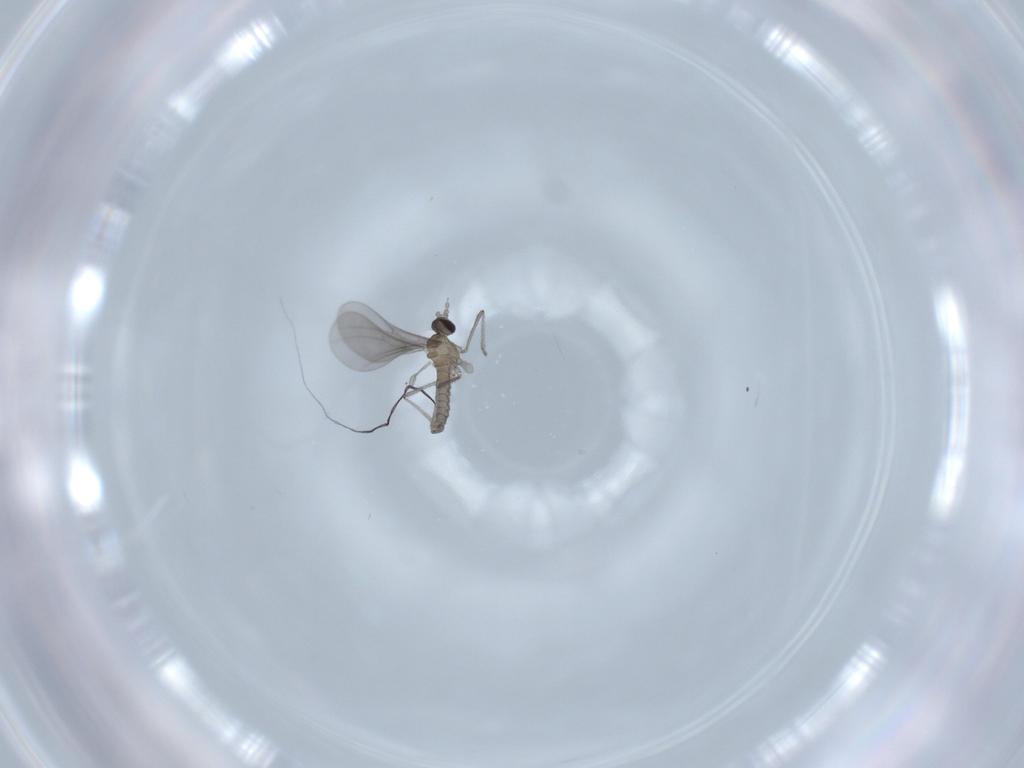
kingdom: Animalia
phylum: Arthropoda
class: Insecta
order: Diptera
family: Cecidomyiidae
